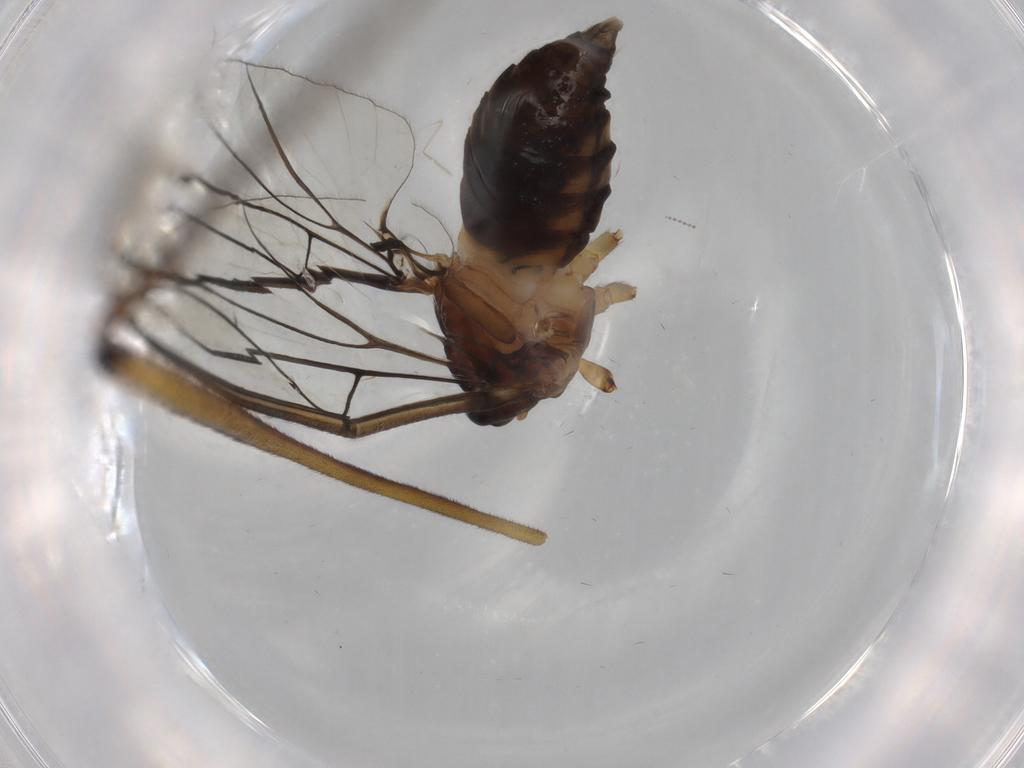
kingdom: Animalia
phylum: Arthropoda
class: Insecta
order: Diptera
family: Blephariceridae
